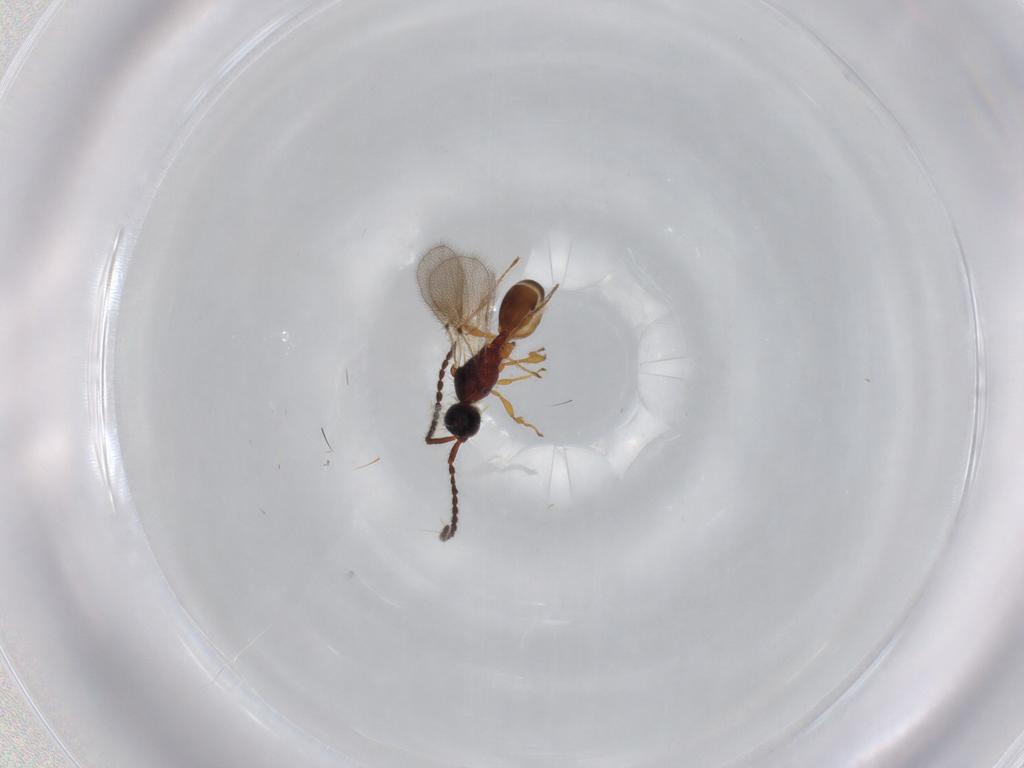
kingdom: Animalia
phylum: Arthropoda
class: Insecta
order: Hymenoptera
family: Diapriidae
